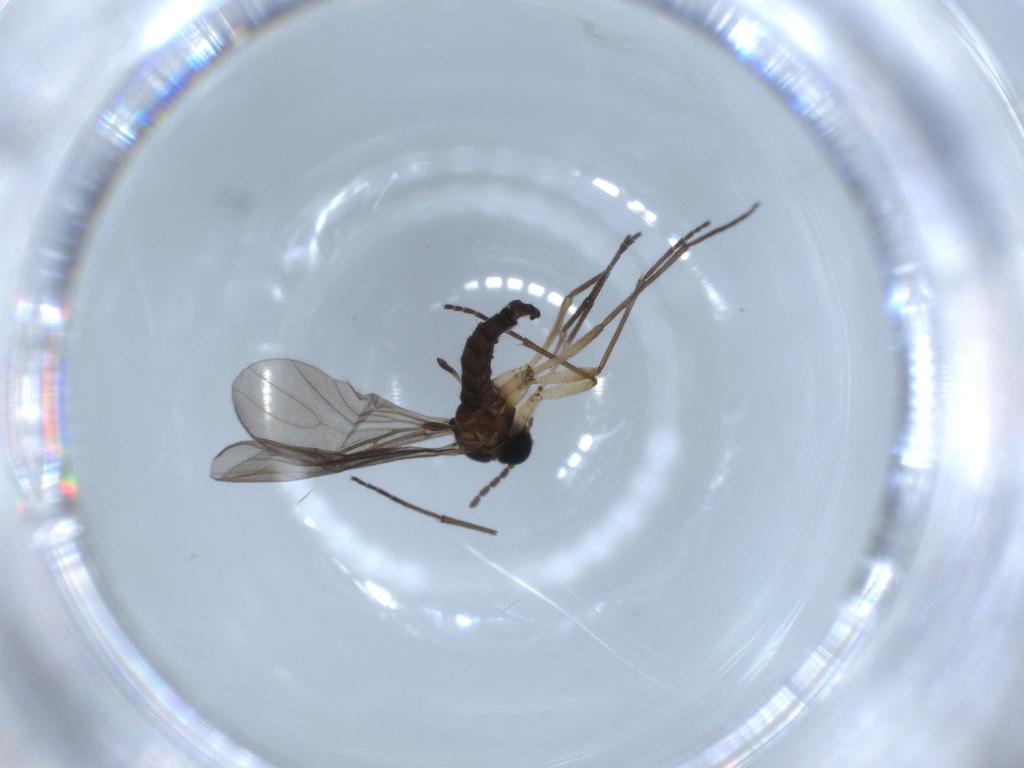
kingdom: Animalia
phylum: Arthropoda
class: Insecta
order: Diptera
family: Sciaridae
